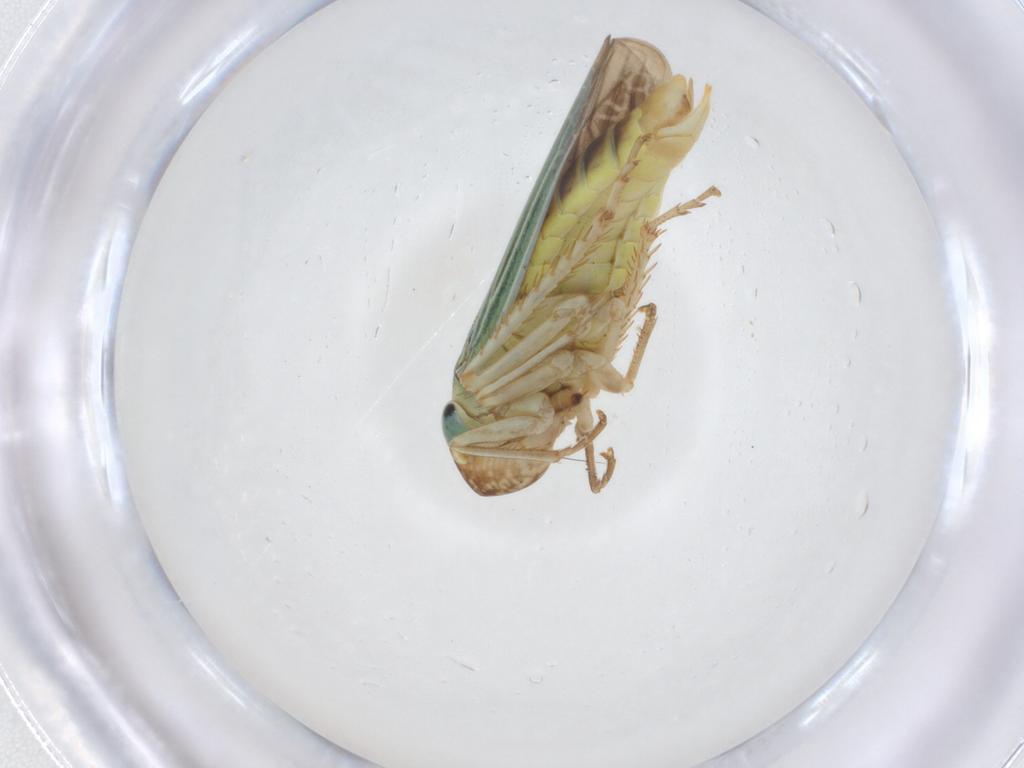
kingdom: Animalia
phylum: Arthropoda
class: Insecta
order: Hemiptera
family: Cicadellidae
